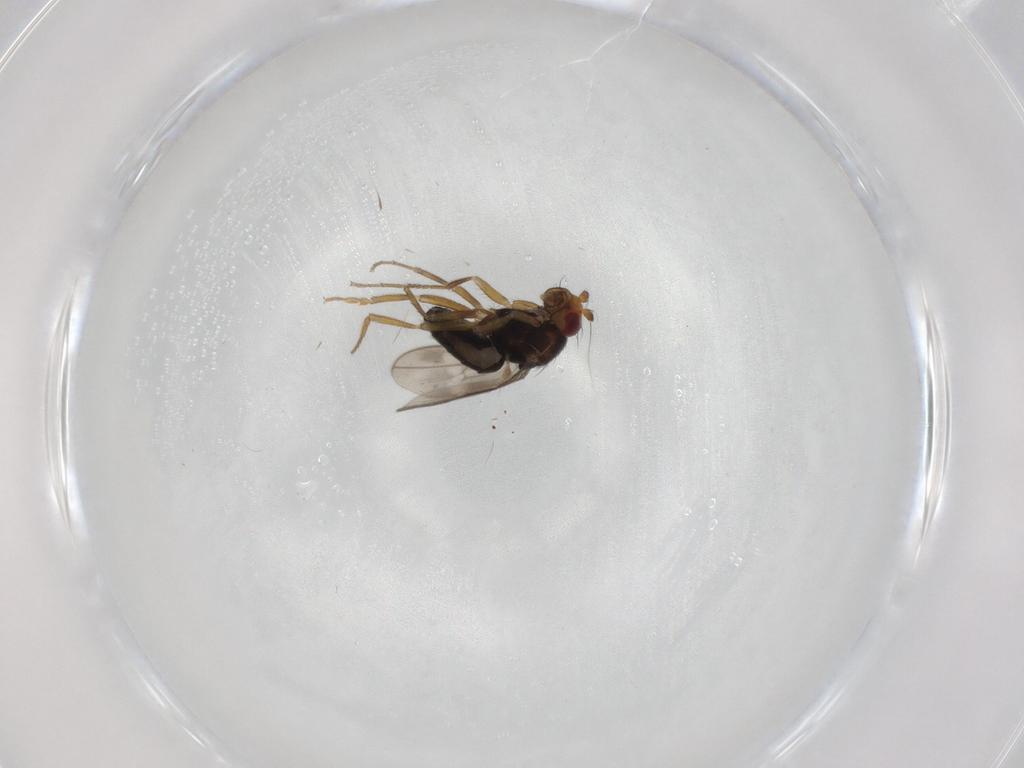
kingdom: Animalia
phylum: Arthropoda
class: Insecta
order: Diptera
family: Sphaeroceridae
